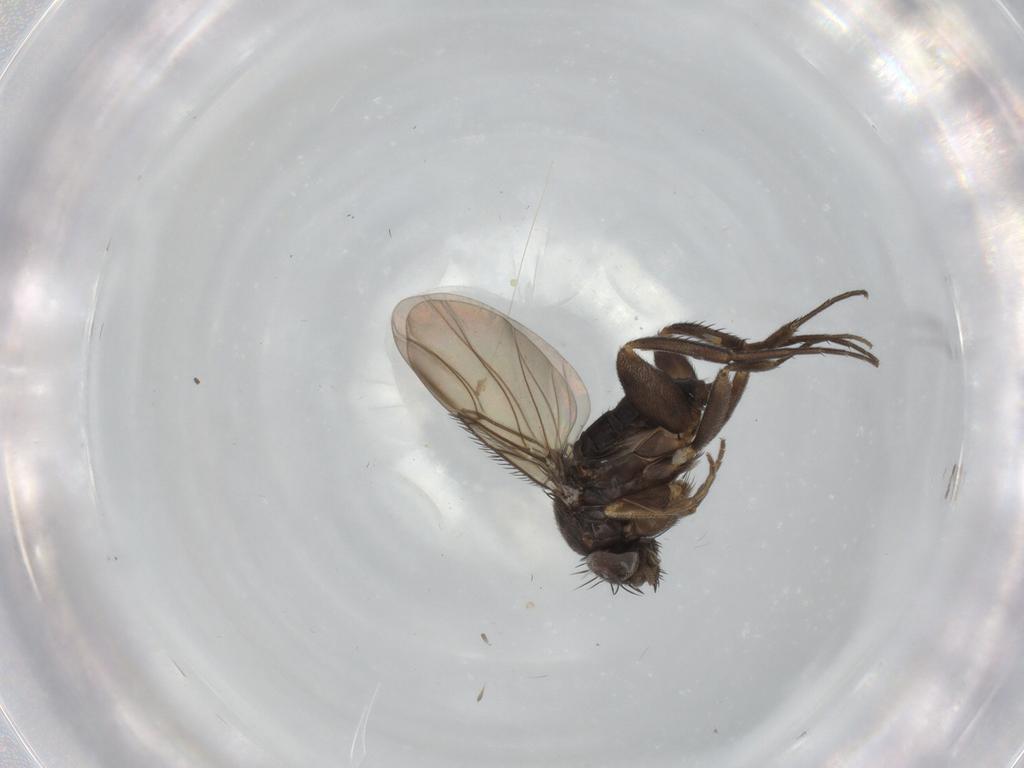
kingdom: Animalia
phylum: Arthropoda
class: Insecta
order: Diptera
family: Phoridae
